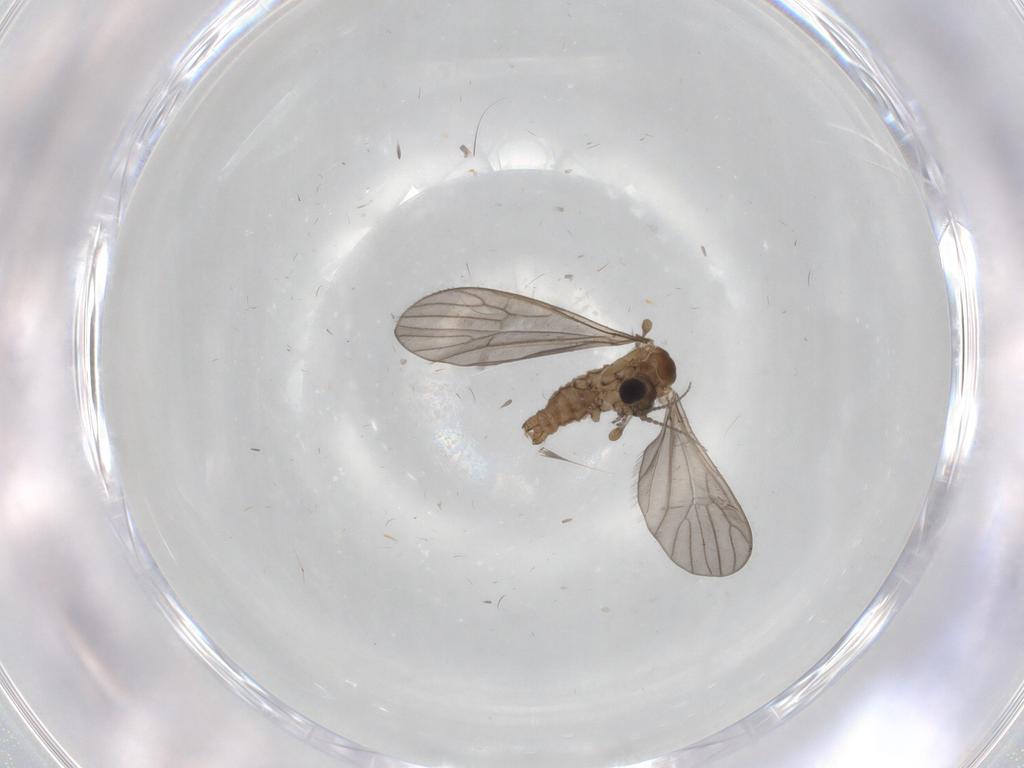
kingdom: Animalia
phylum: Arthropoda
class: Insecta
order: Diptera
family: Limoniidae
